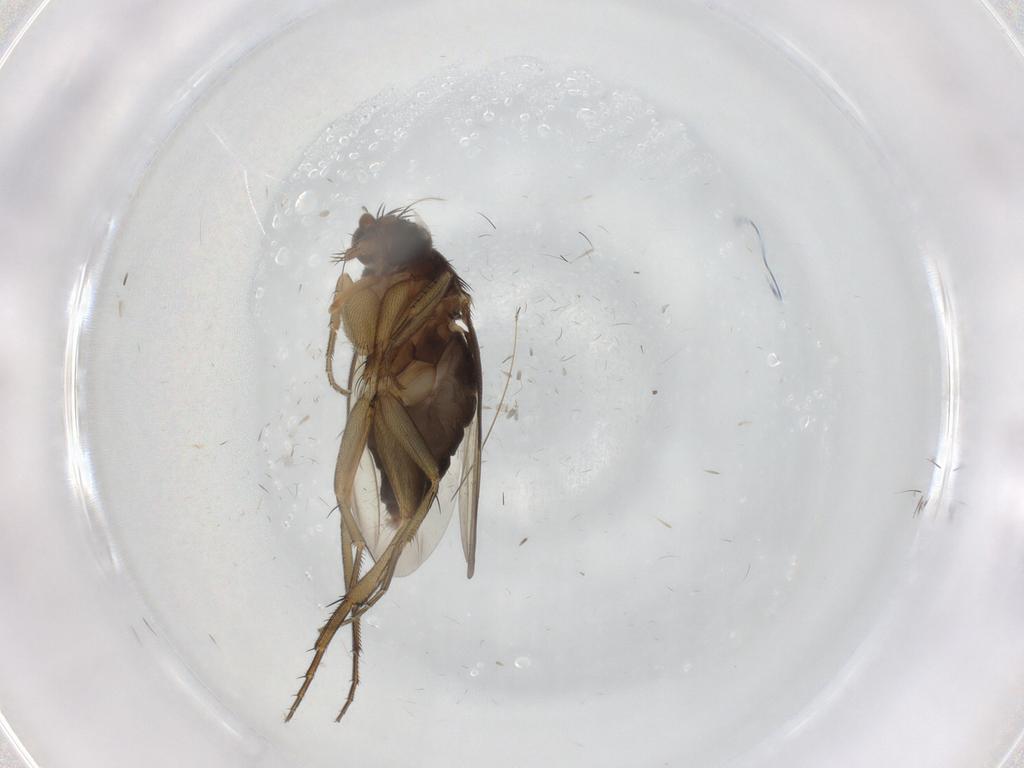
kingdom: Animalia
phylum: Arthropoda
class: Insecta
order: Diptera
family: Phoridae
